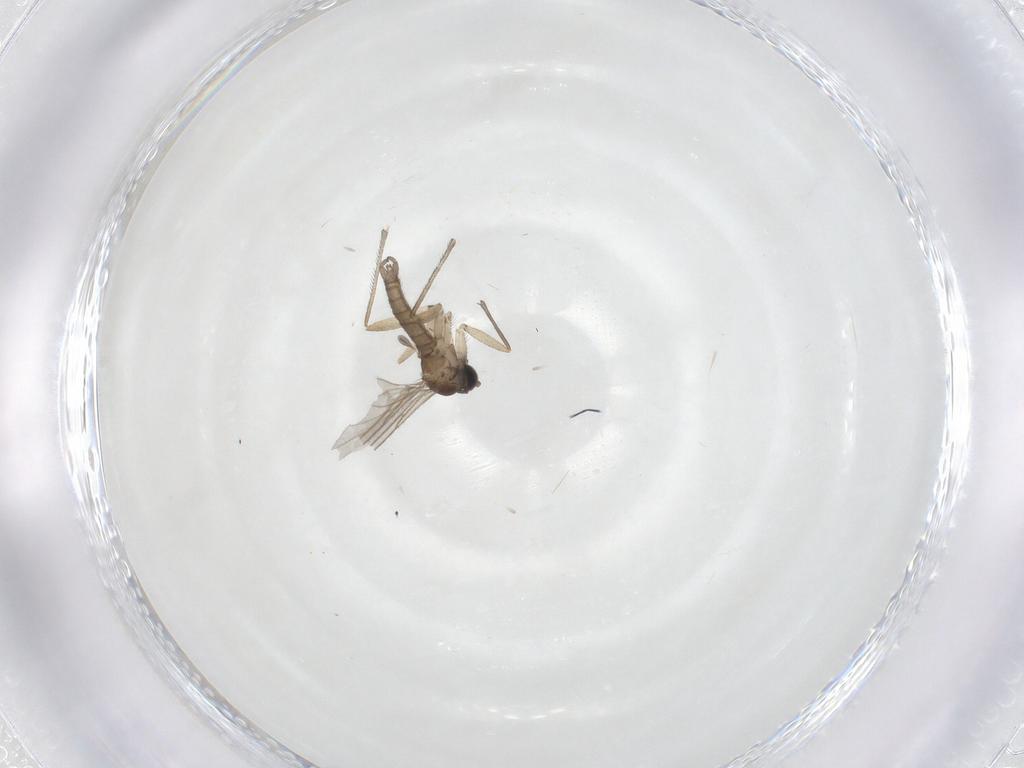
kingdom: Animalia
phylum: Arthropoda
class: Insecta
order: Diptera
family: Sciaridae
